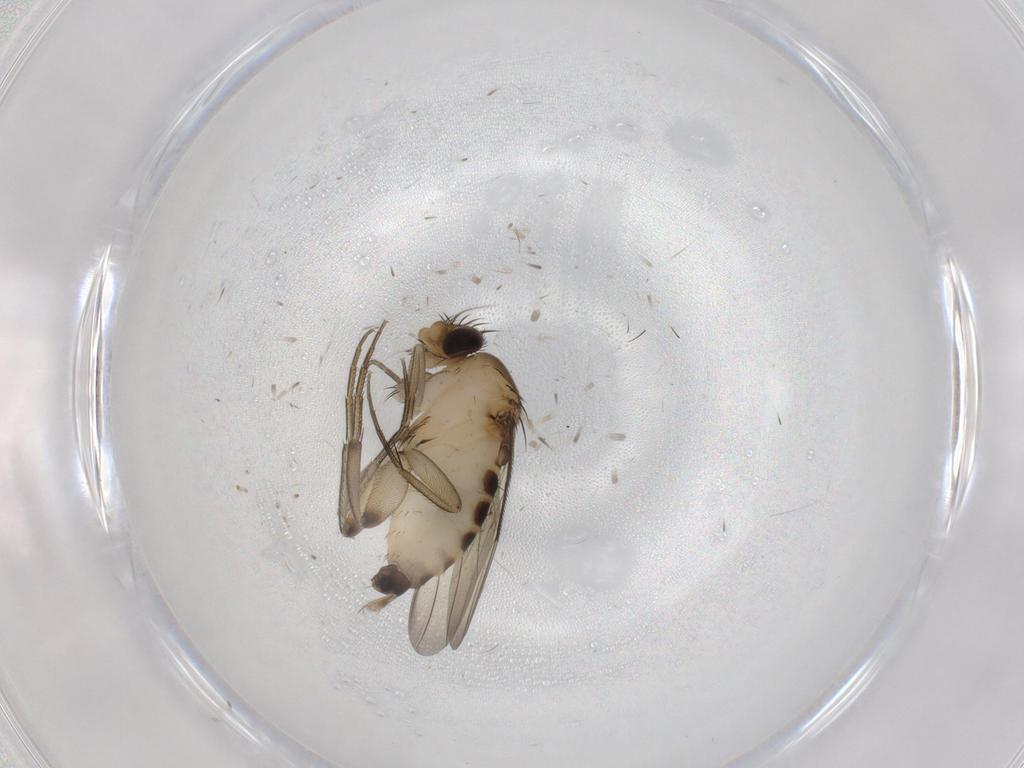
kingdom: Animalia
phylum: Arthropoda
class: Insecta
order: Diptera
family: Phoridae
